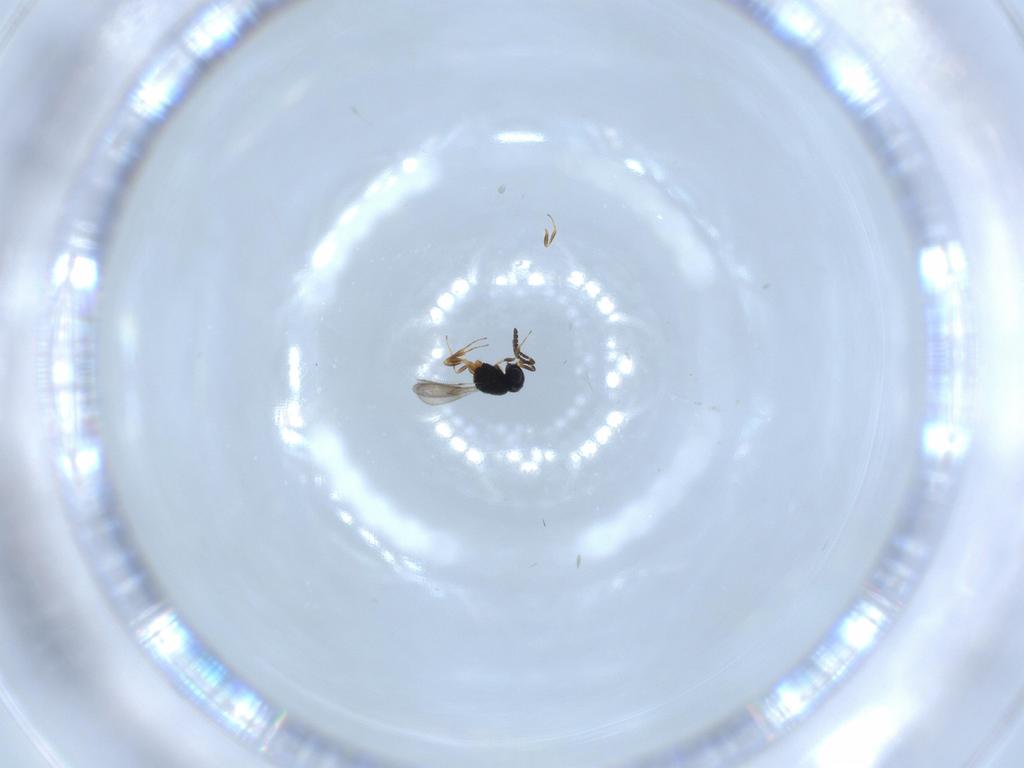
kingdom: Animalia
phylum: Arthropoda
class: Insecta
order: Hymenoptera
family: Scelionidae
